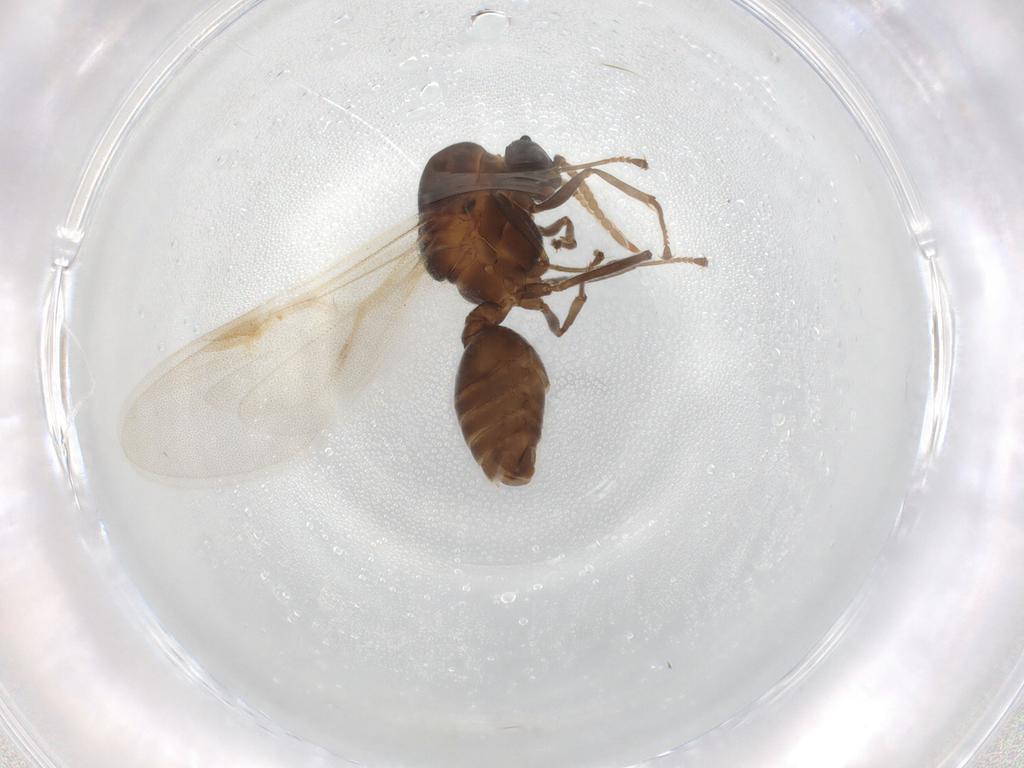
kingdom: Animalia
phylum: Arthropoda
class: Insecta
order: Hymenoptera
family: Formicidae
